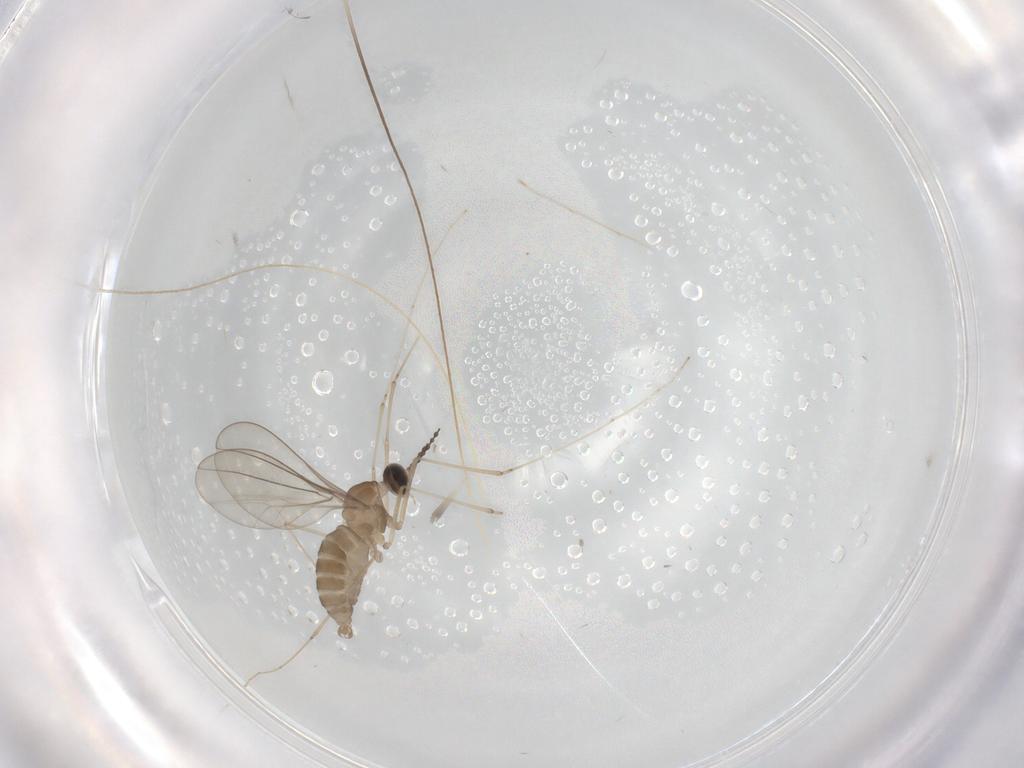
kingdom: Animalia
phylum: Arthropoda
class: Insecta
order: Diptera
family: Cecidomyiidae
